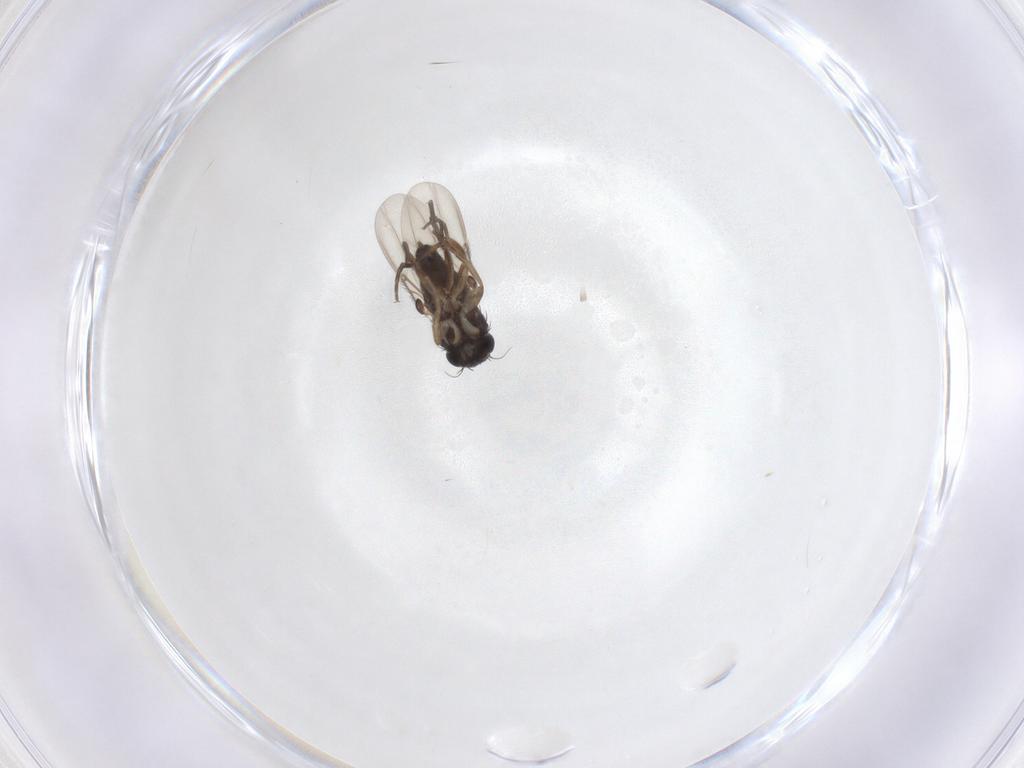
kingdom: Animalia
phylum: Arthropoda
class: Insecta
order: Diptera
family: Phoridae
